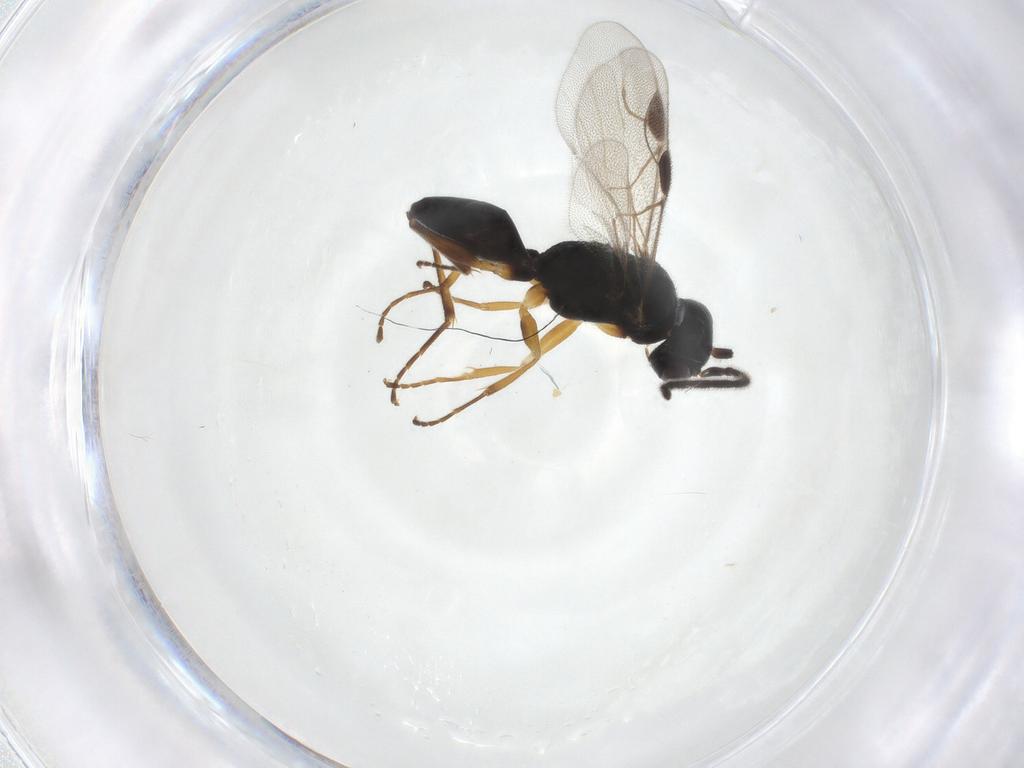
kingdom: Animalia
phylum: Arthropoda
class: Insecta
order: Hymenoptera
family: Dryinidae
